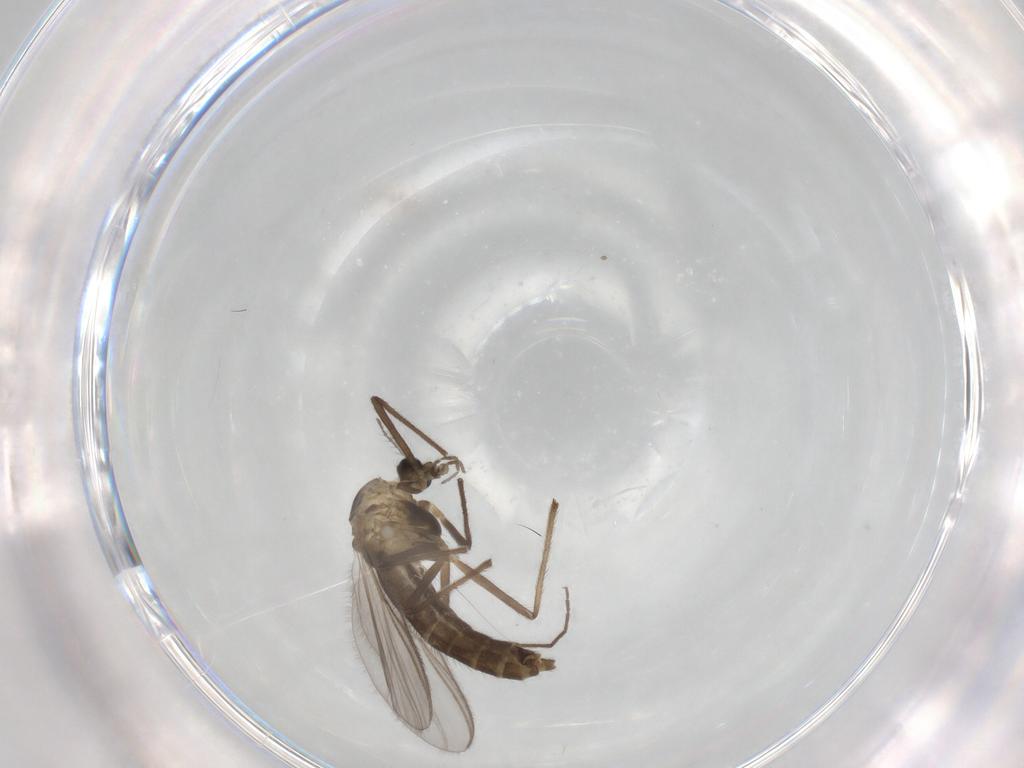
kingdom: Animalia
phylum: Arthropoda
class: Insecta
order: Diptera
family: Chironomidae
